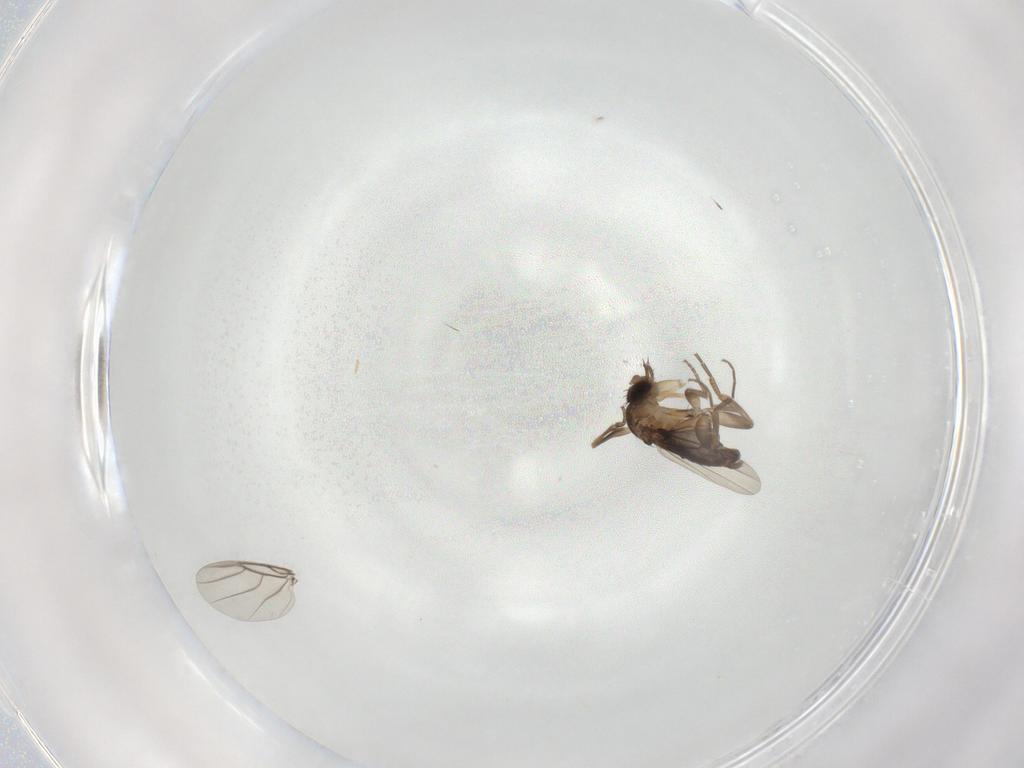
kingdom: Animalia
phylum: Arthropoda
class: Insecta
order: Diptera
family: Phoridae
